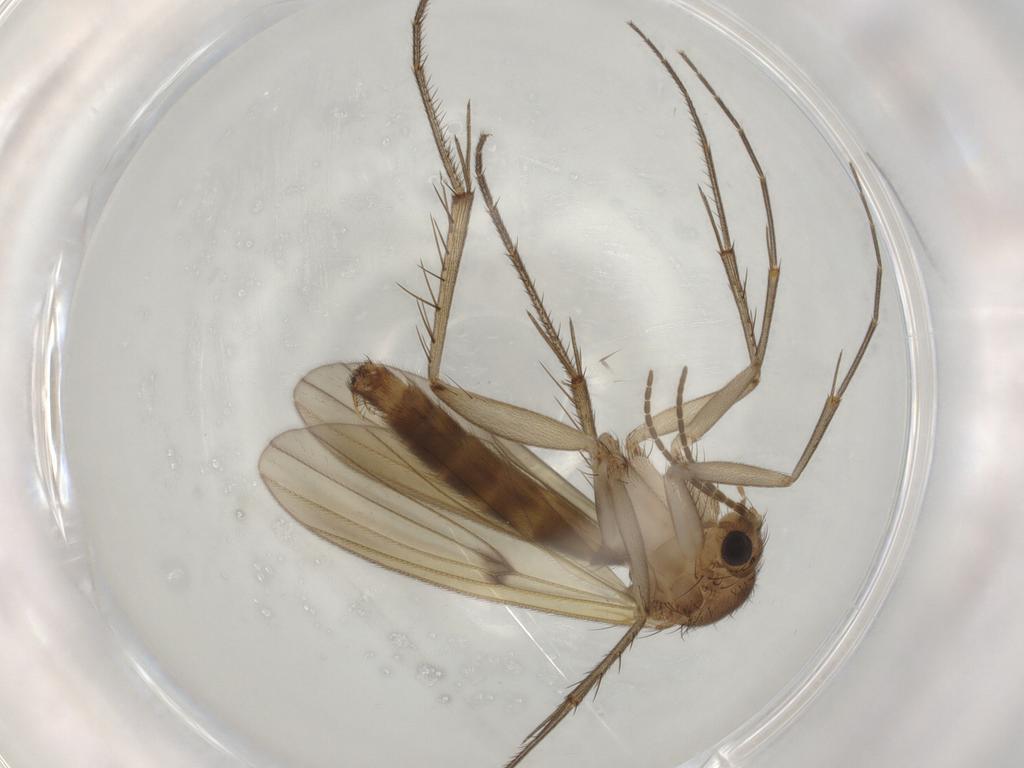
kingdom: Animalia
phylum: Arthropoda
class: Insecta
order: Diptera
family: Mycetophilidae
